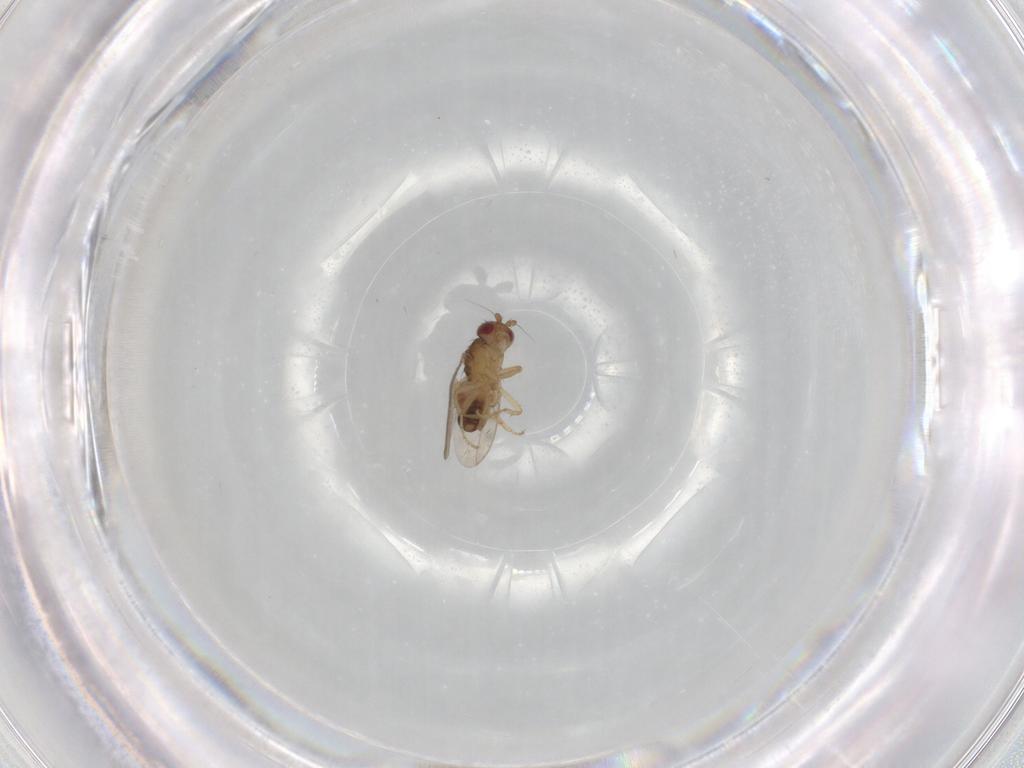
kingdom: Animalia
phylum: Arthropoda
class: Insecta
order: Diptera
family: Sphaeroceridae
